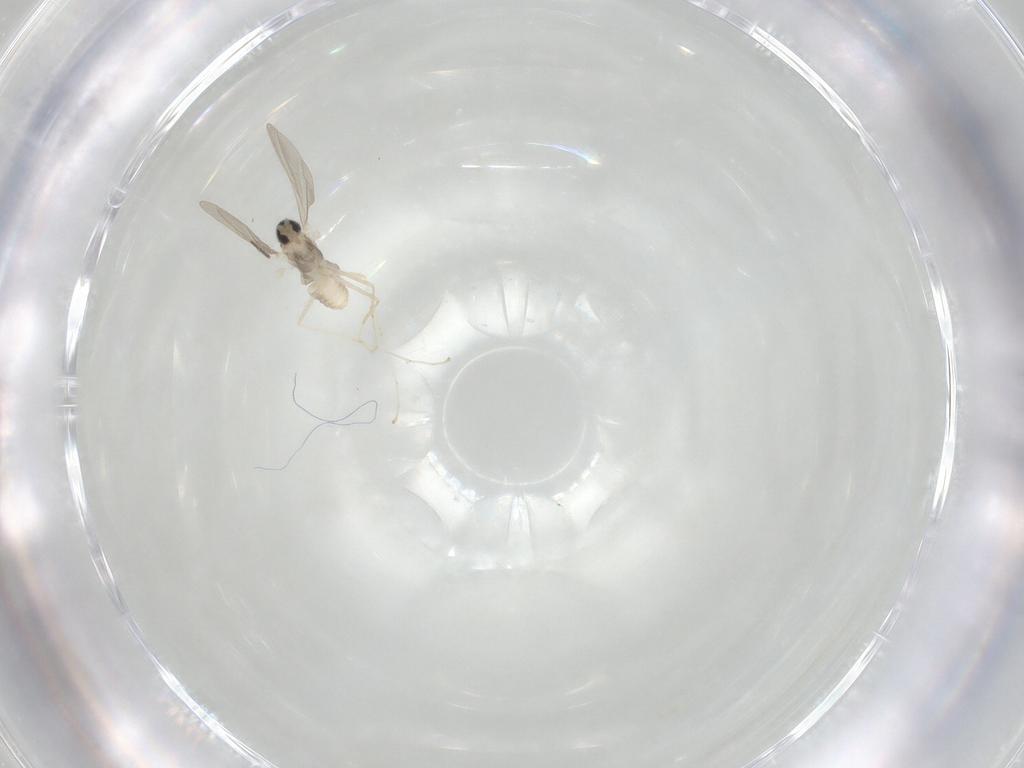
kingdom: Animalia
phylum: Arthropoda
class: Insecta
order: Diptera
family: Cecidomyiidae
